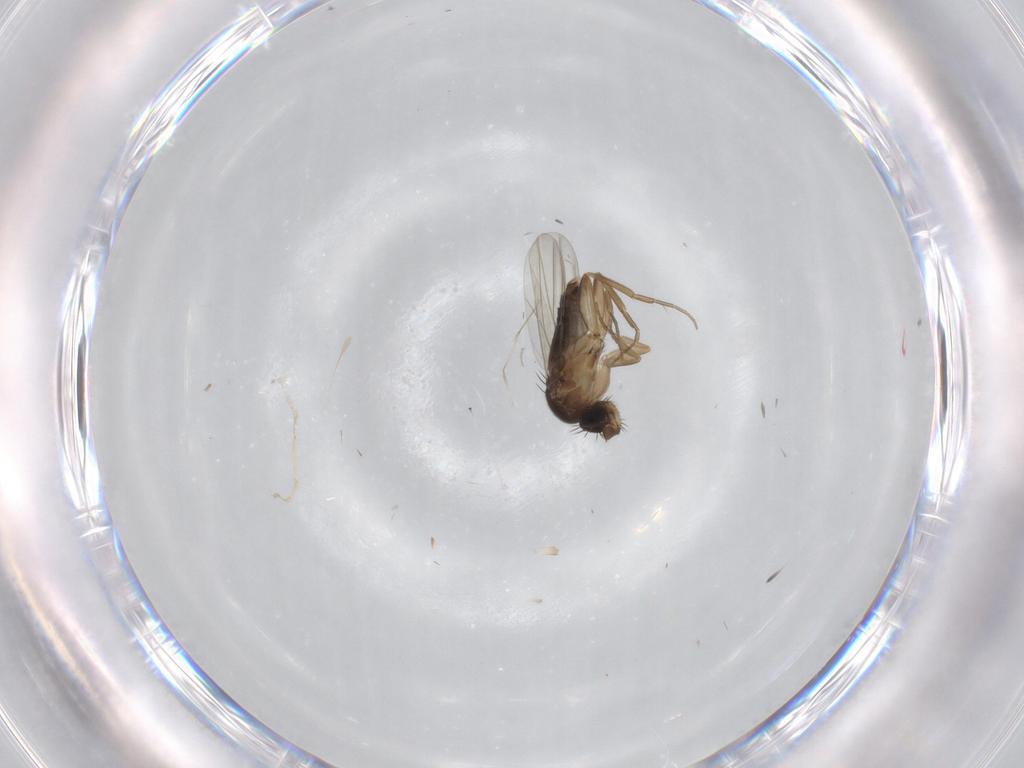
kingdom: Animalia
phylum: Arthropoda
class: Insecta
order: Diptera
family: Phoridae
